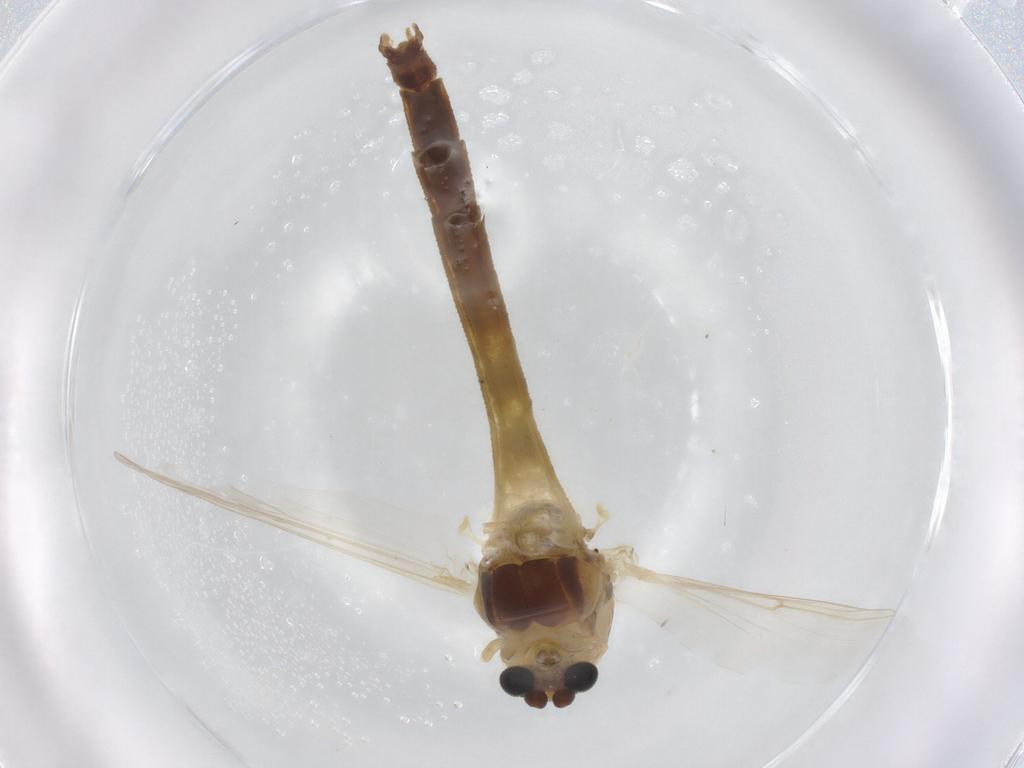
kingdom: Animalia
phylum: Arthropoda
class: Insecta
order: Diptera
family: Chironomidae
